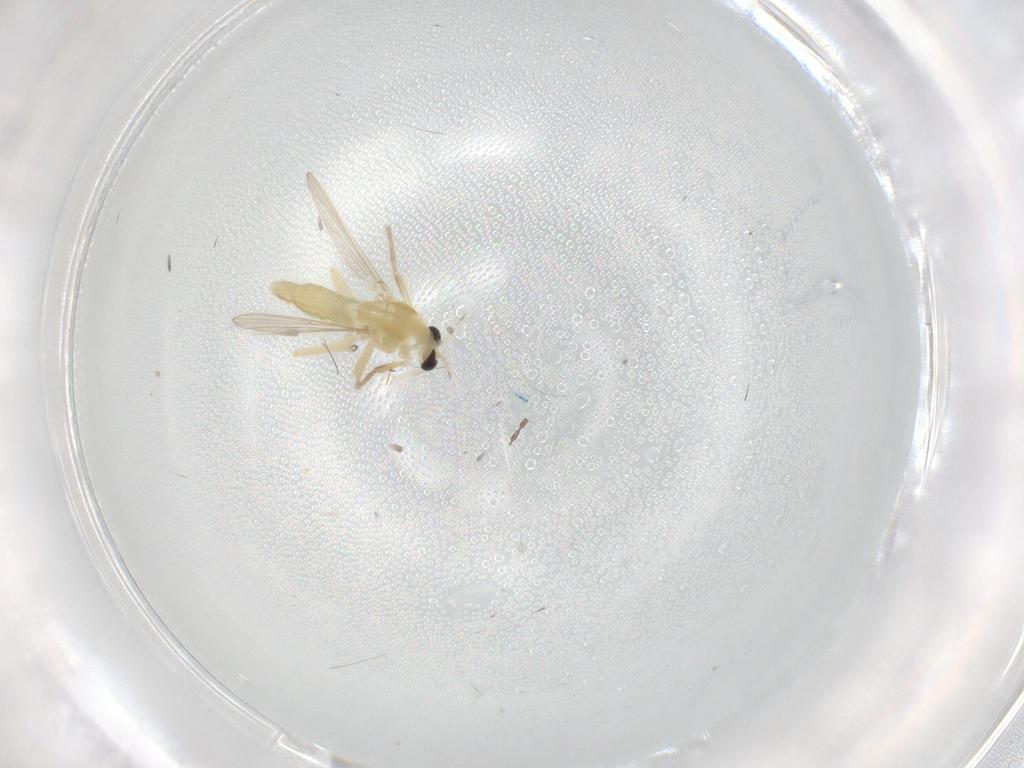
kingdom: Animalia
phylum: Arthropoda
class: Insecta
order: Diptera
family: Chironomidae
